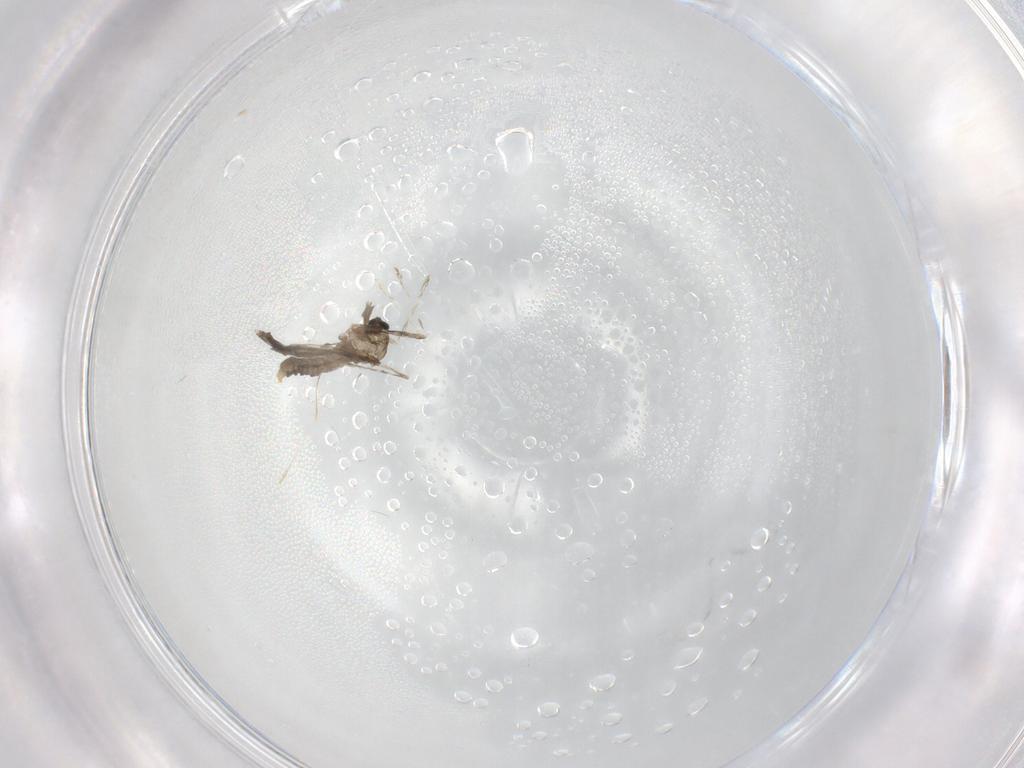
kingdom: Animalia
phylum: Arthropoda
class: Insecta
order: Diptera
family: Cecidomyiidae
